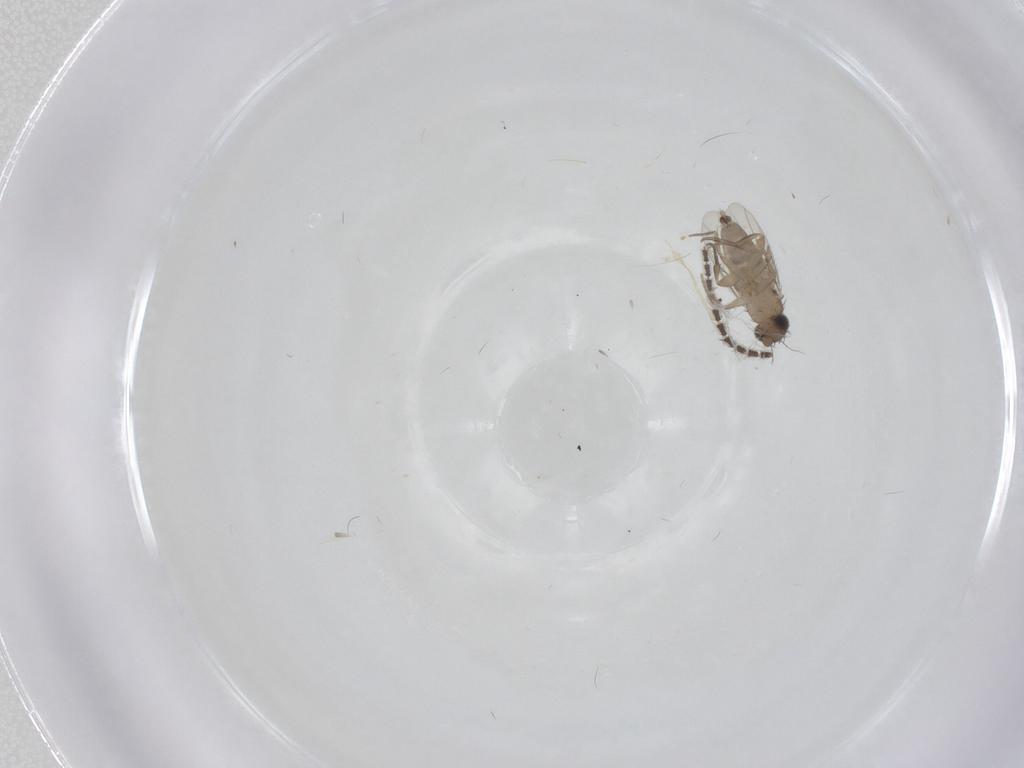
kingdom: Animalia
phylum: Arthropoda
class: Insecta
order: Diptera
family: Phoridae
